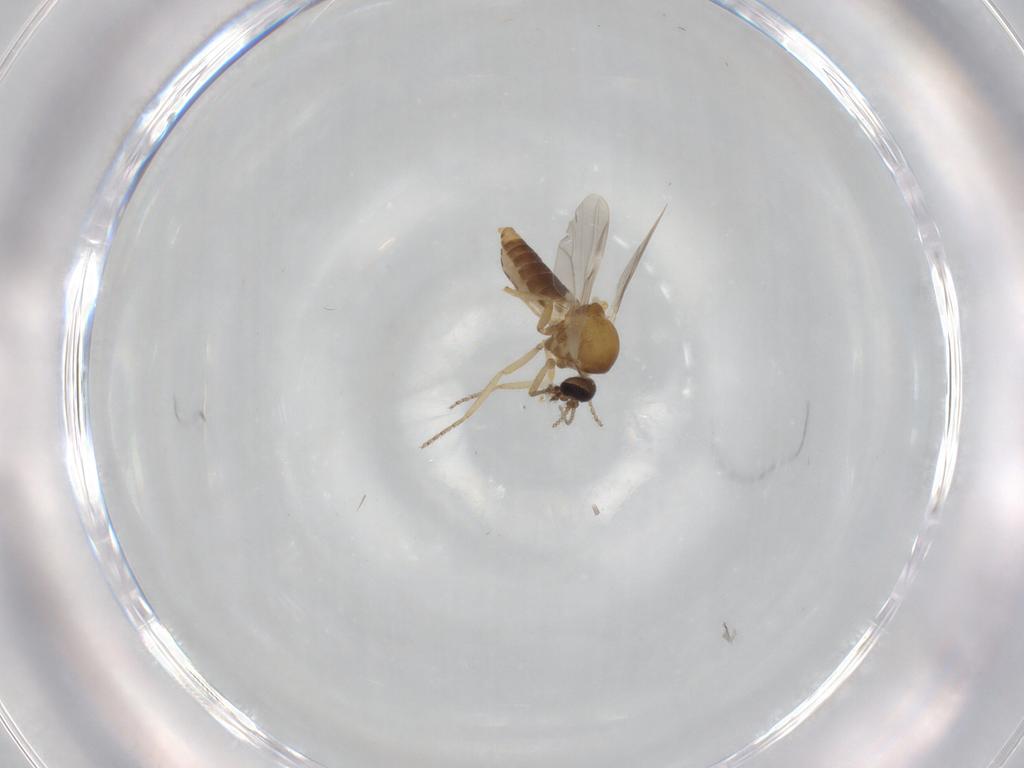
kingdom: Animalia
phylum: Arthropoda
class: Insecta
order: Diptera
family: Ceratopogonidae
